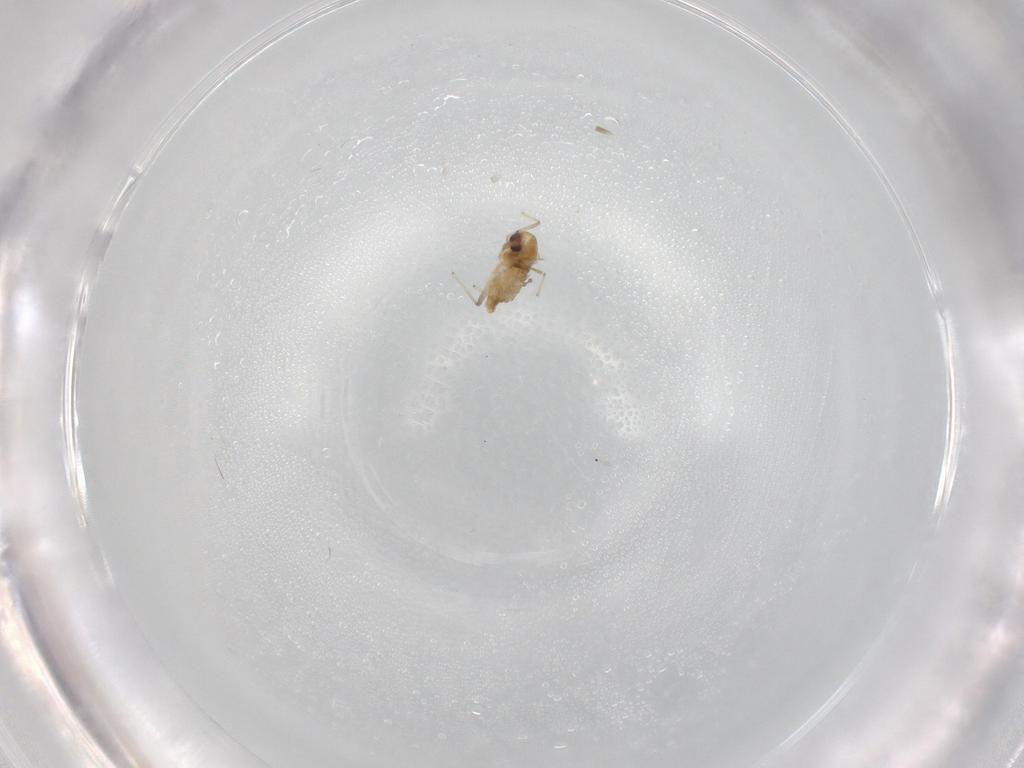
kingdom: Animalia
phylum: Arthropoda
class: Insecta
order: Diptera
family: Chironomidae
